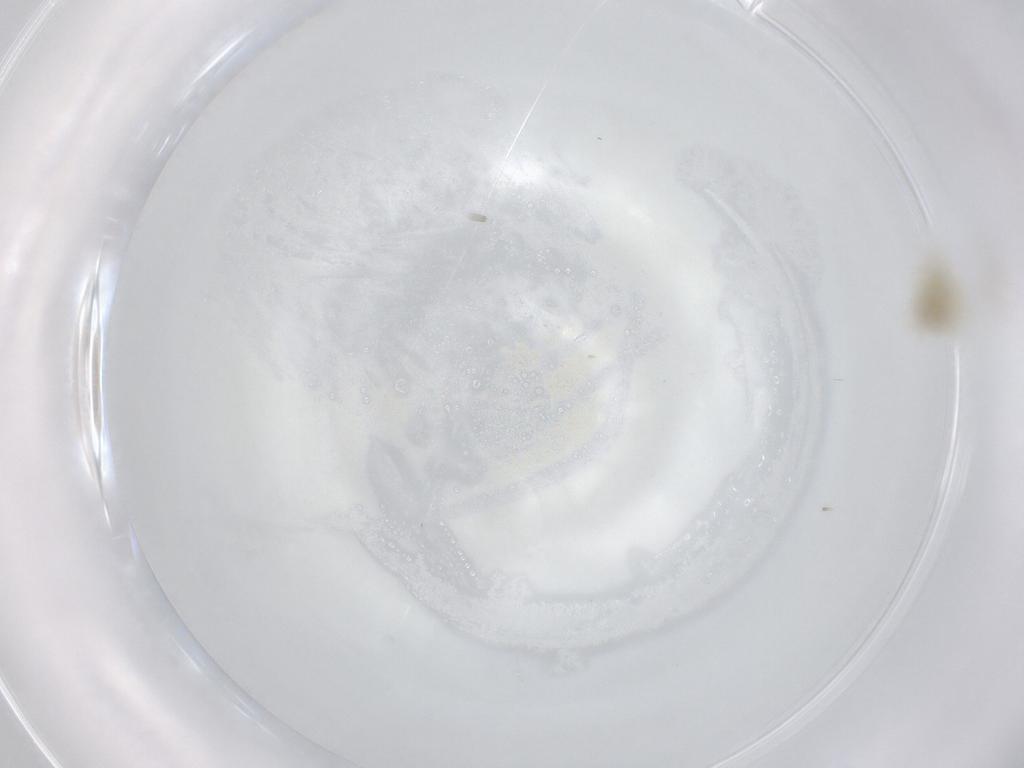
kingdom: Animalia
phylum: Arthropoda
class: Insecta
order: Hemiptera
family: Aleyrodidae
